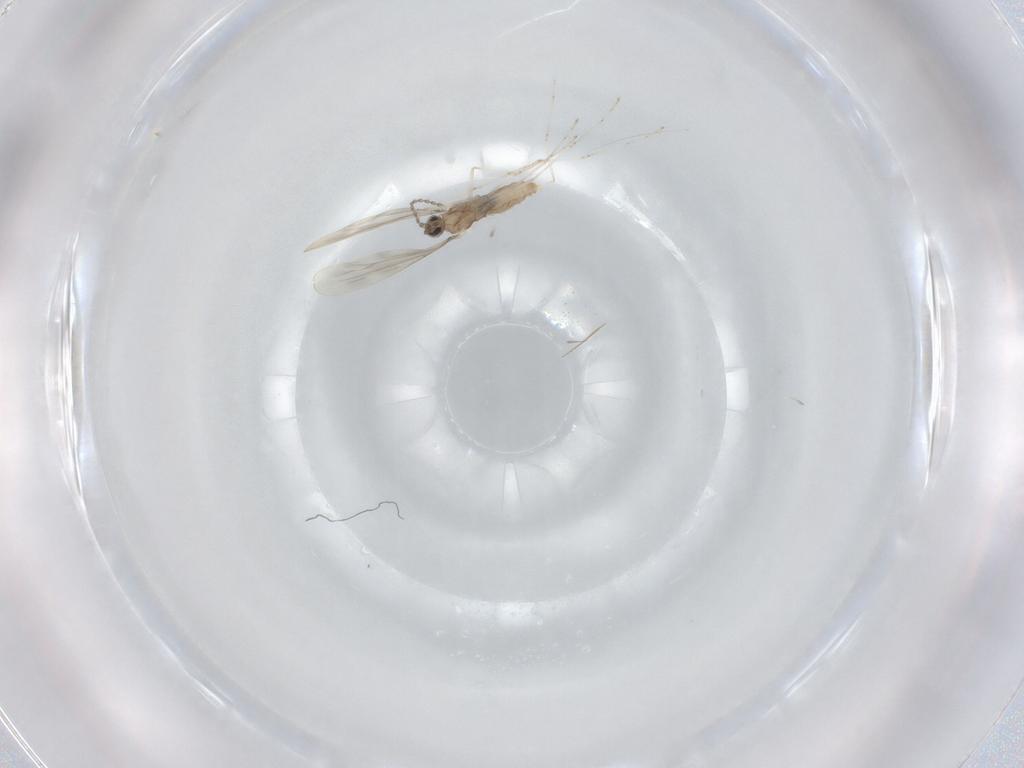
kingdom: Animalia
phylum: Arthropoda
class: Insecta
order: Diptera
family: Cecidomyiidae
